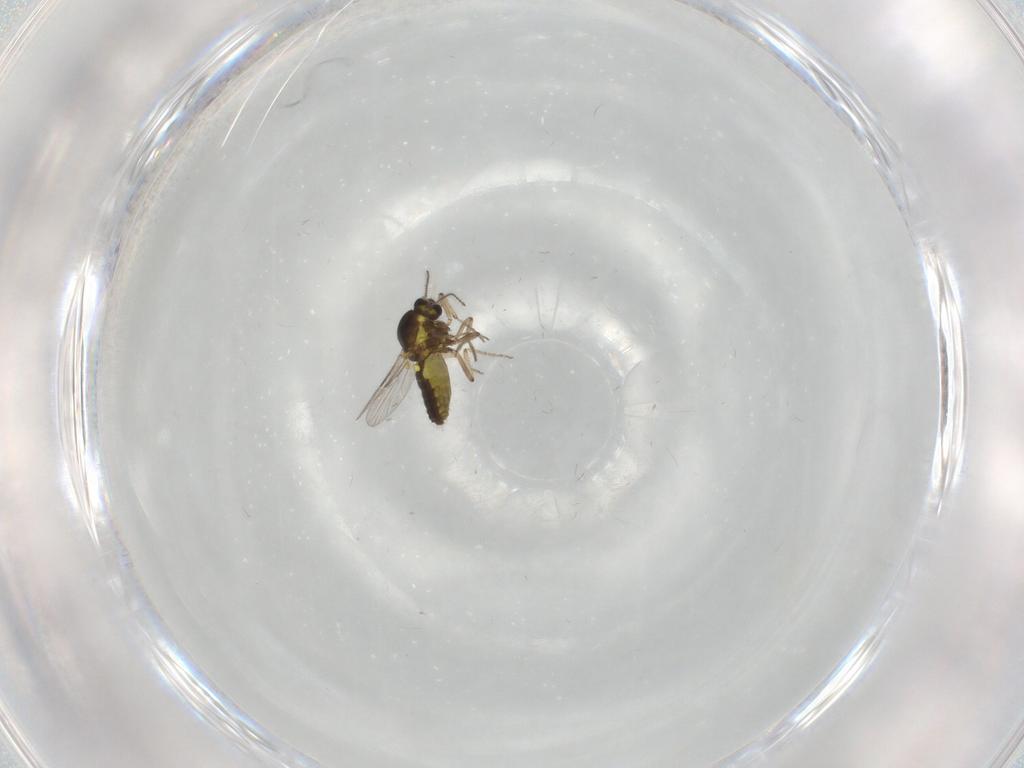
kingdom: Animalia
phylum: Arthropoda
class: Insecta
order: Diptera
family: Ceratopogonidae
